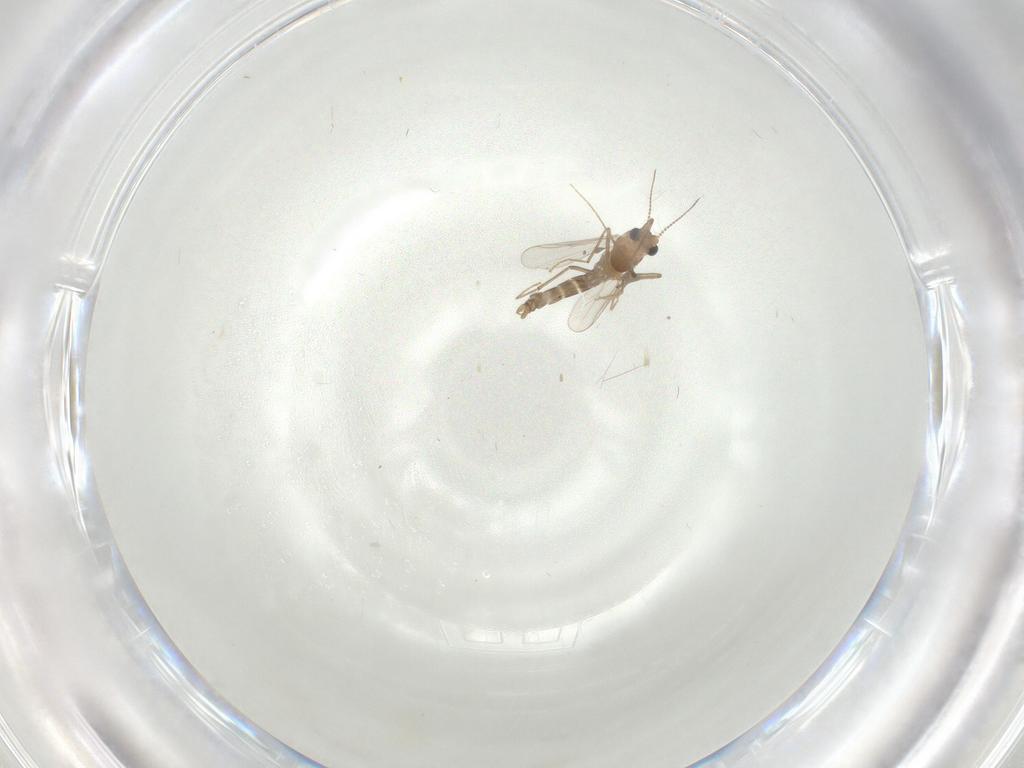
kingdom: Animalia
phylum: Arthropoda
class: Insecta
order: Diptera
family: Chironomidae
